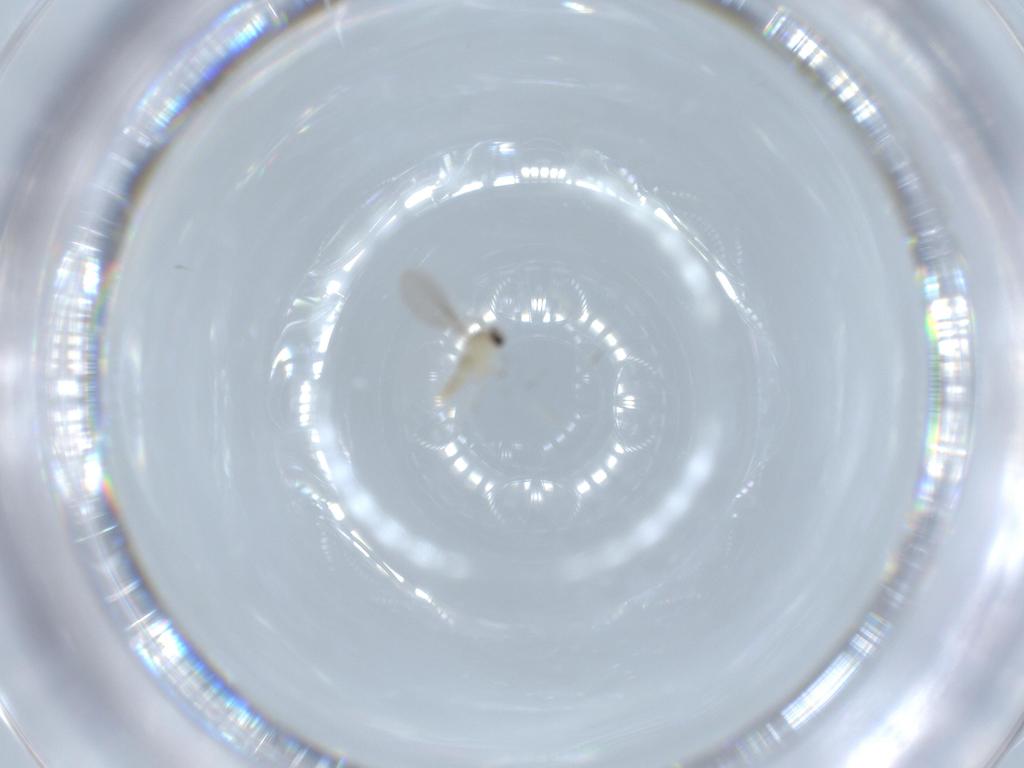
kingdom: Animalia
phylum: Arthropoda
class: Insecta
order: Diptera
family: Cecidomyiidae
